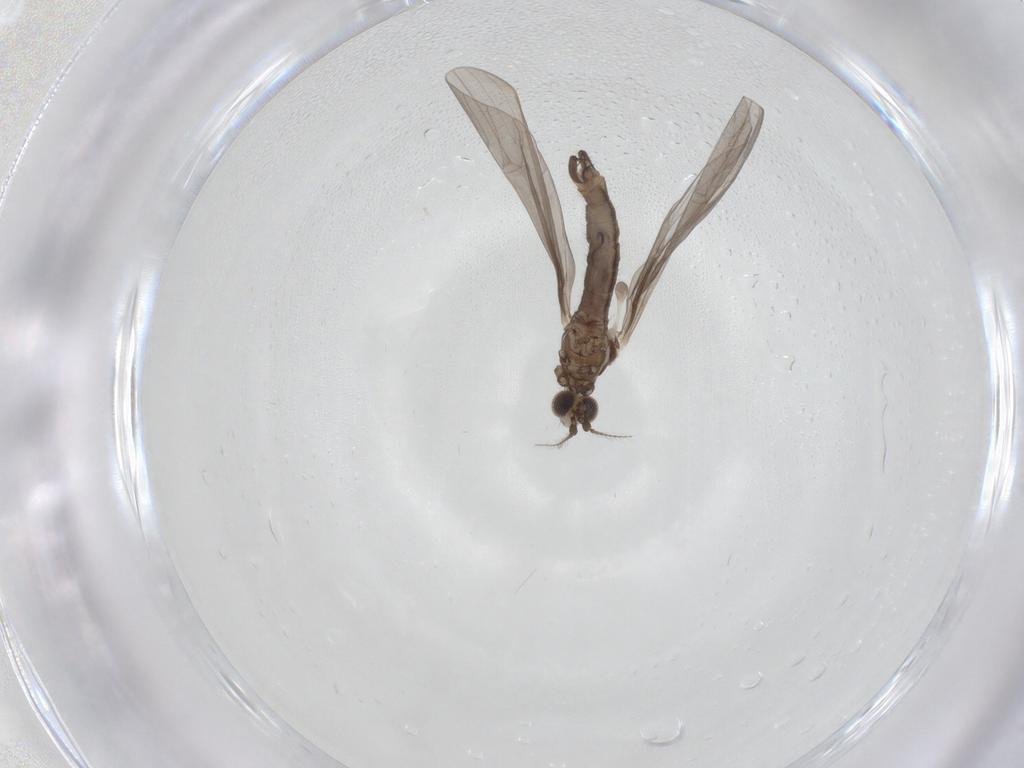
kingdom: Animalia
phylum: Arthropoda
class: Insecta
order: Diptera
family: Limoniidae
